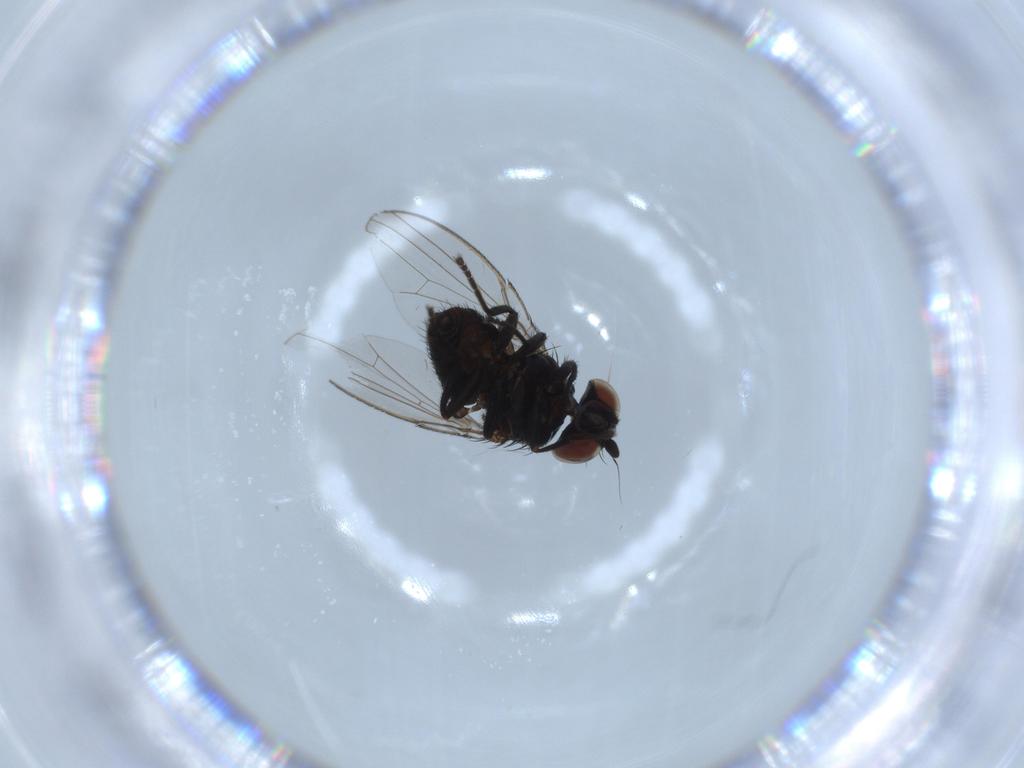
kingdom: Animalia
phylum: Arthropoda
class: Insecta
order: Diptera
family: Milichiidae
